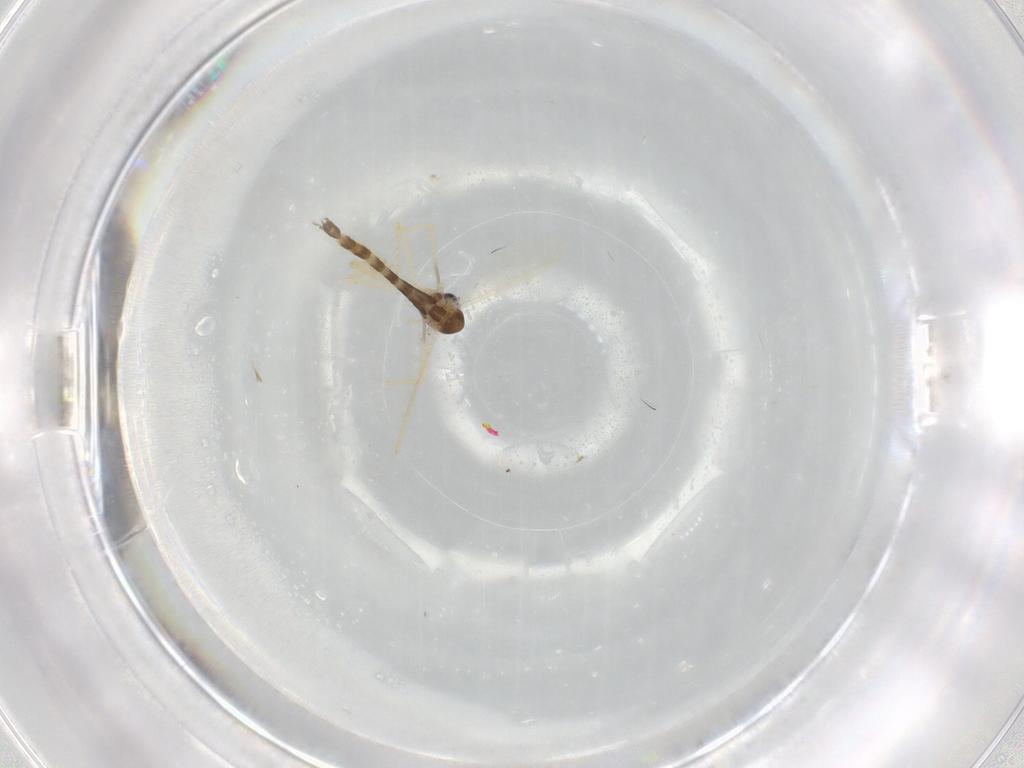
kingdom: Animalia
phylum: Arthropoda
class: Insecta
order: Diptera
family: Chironomidae
